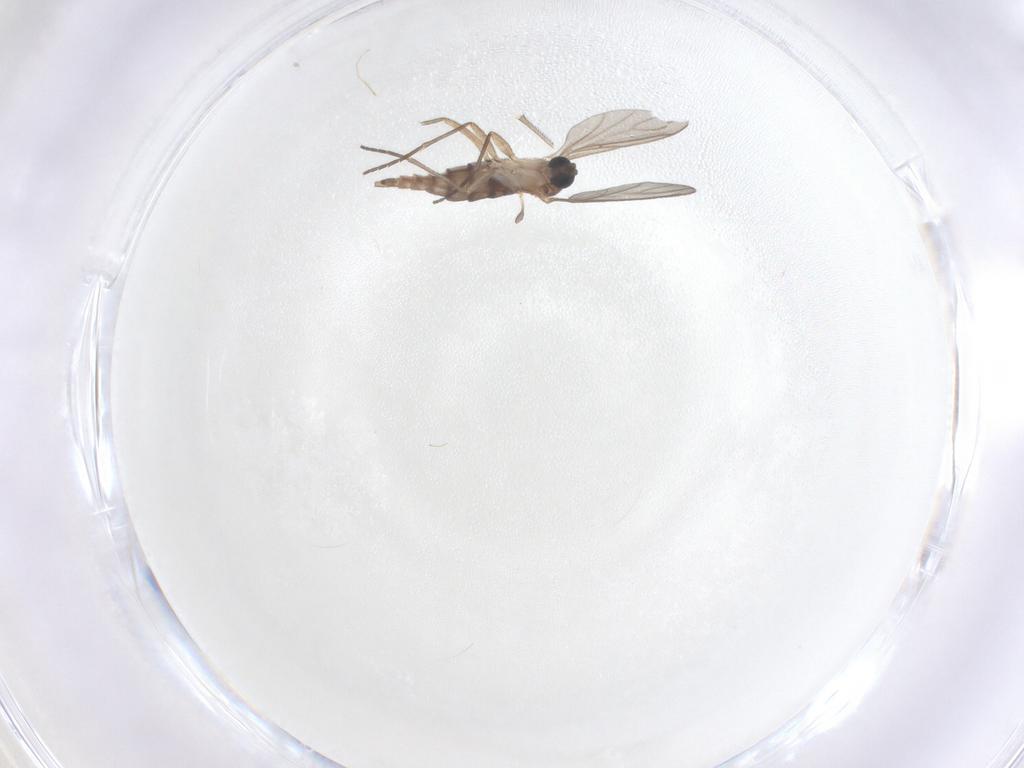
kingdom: Animalia
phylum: Arthropoda
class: Insecta
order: Diptera
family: Sciaridae
